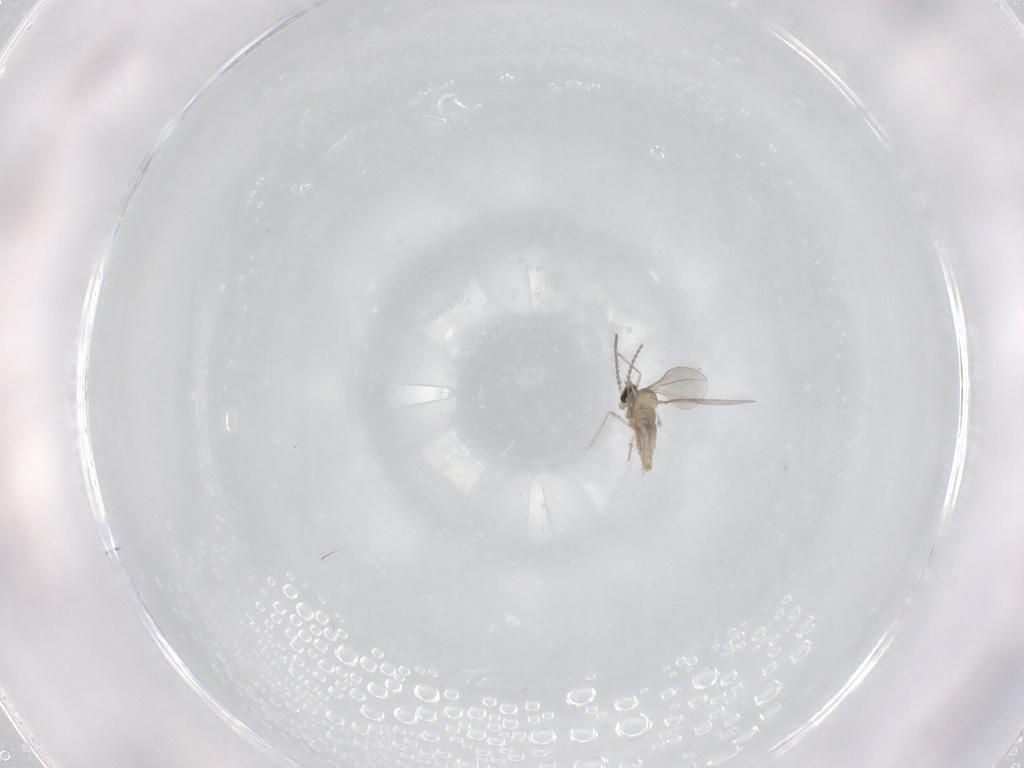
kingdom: Animalia
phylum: Arthropoda
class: Insecta
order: Diptera
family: Cecidomyiidae
